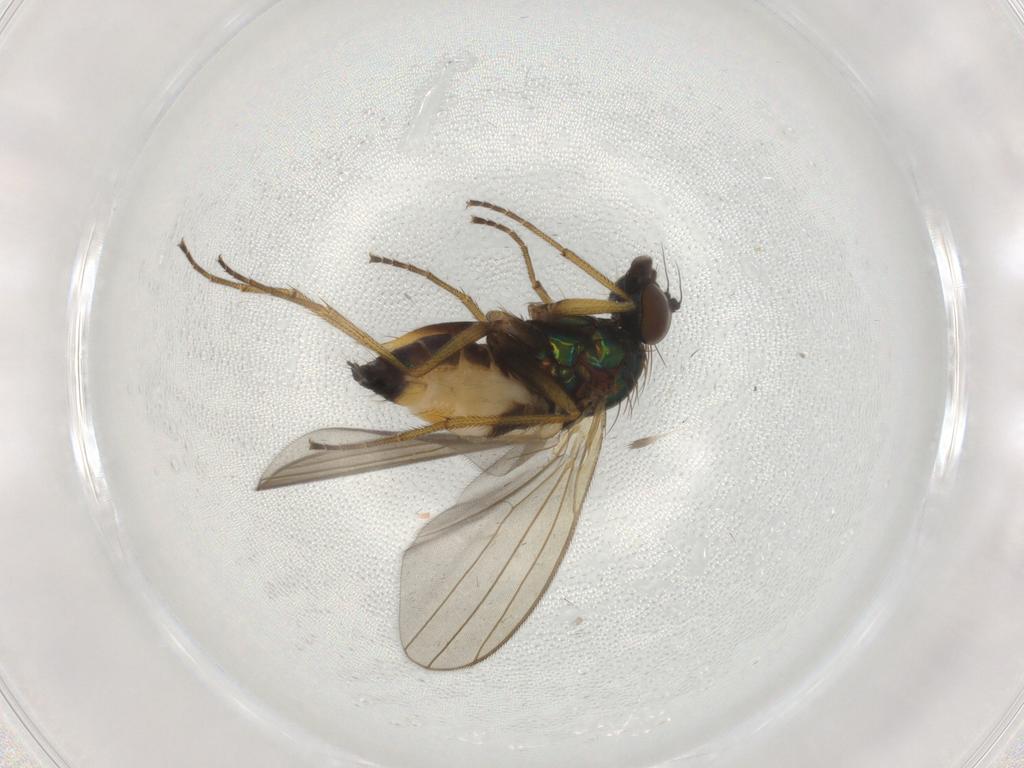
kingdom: Animalia
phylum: Arthropoda
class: Insecta
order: Diptera
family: Dolichopodidae
